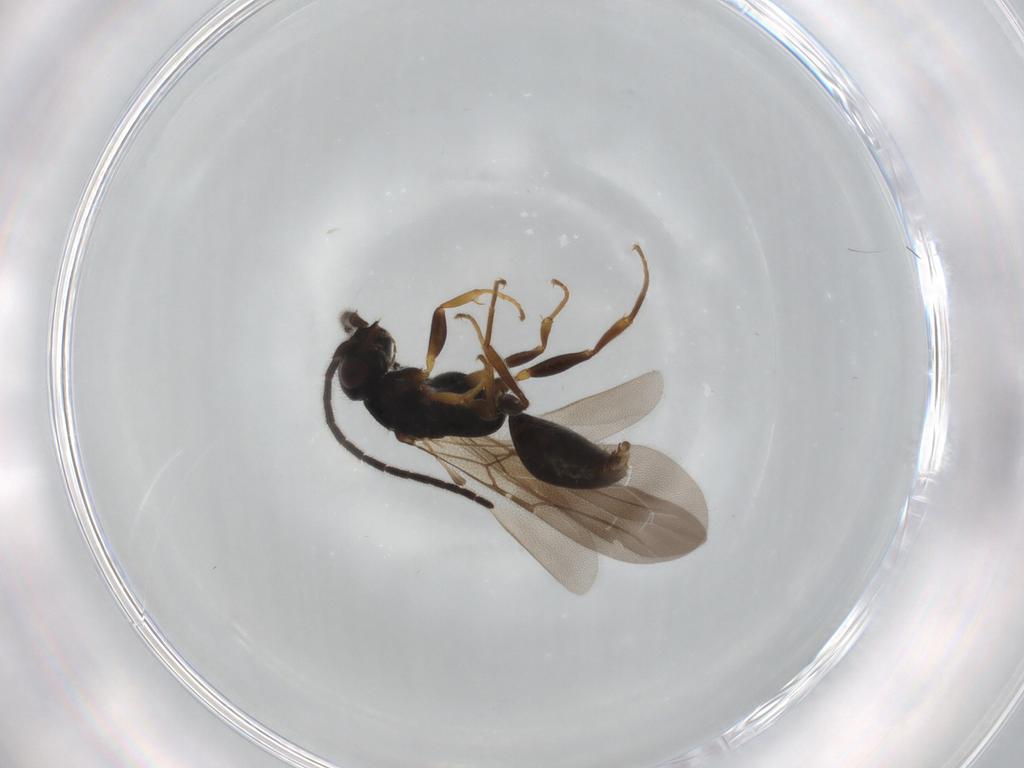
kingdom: Animalia
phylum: Arthropoda
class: Insecta
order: Hymenoptera
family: Bethylidae
